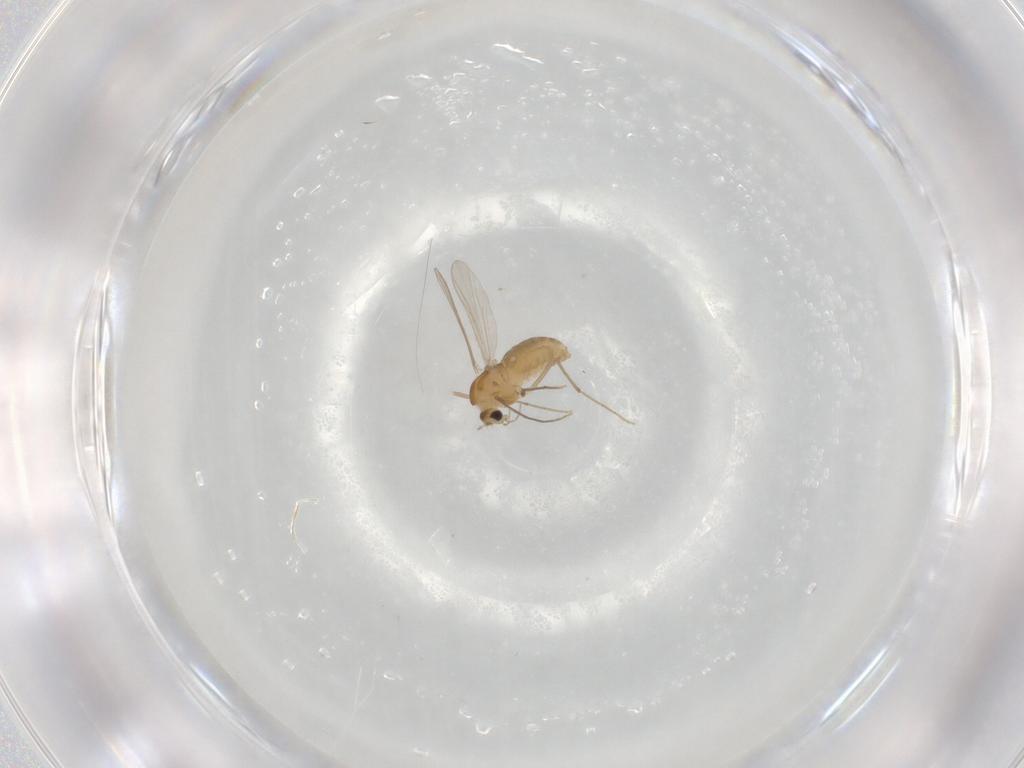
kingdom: Animalia
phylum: Arthropoda
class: Insecta
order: Diptera
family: Chironomidae
